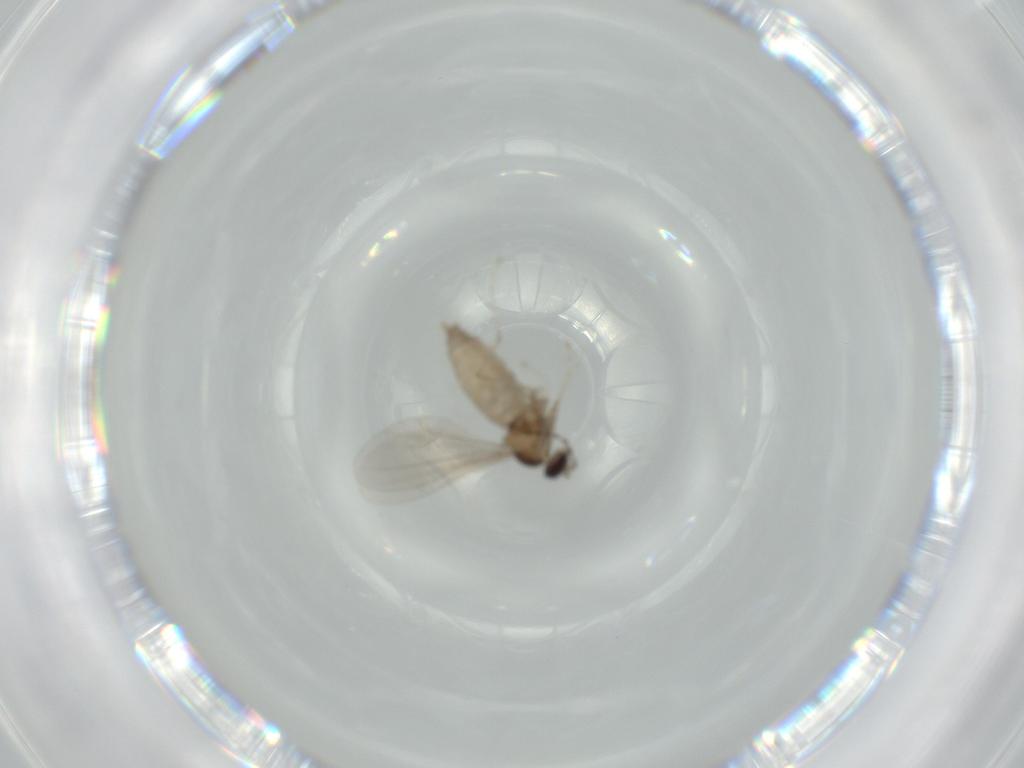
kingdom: Animalia
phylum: Arthropoda
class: Insecta
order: Diptera
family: Cecidomyiidae
